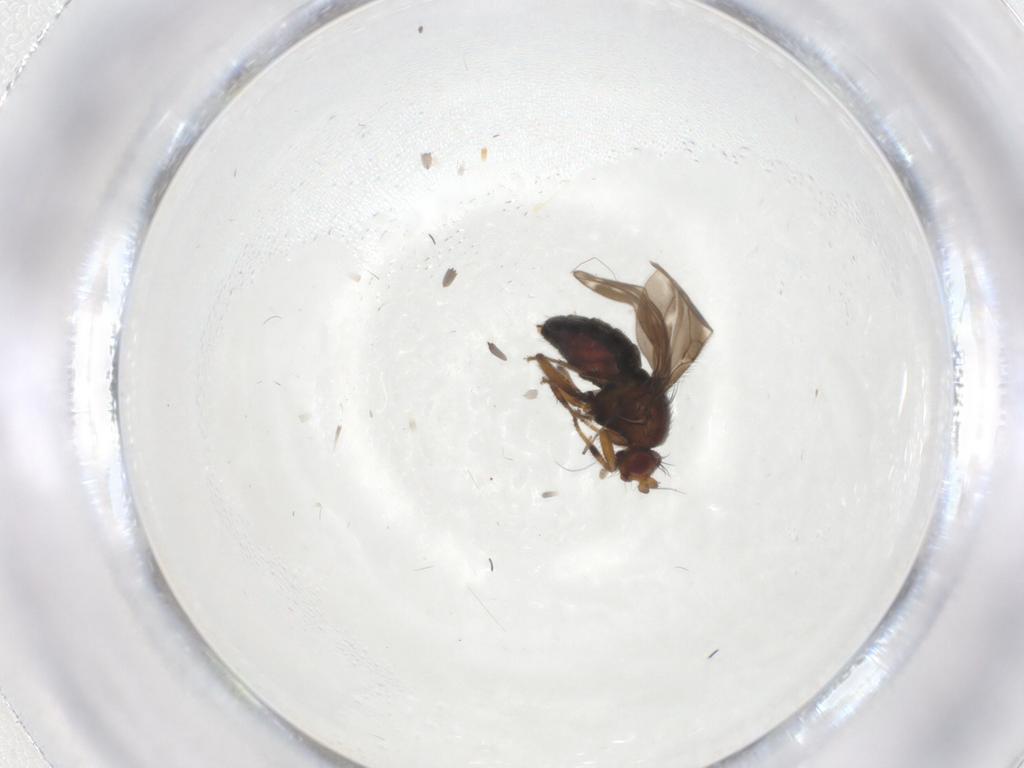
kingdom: Animalia
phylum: Arthropoda
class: Insecta
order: Diptera
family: Sphaeroceridae
